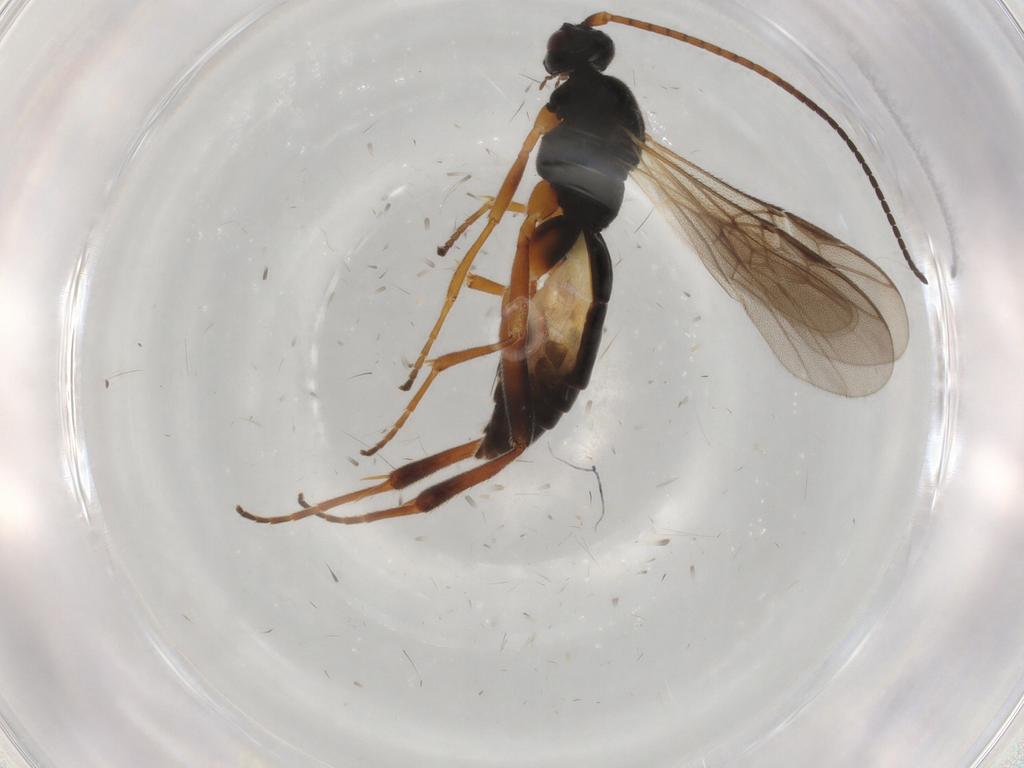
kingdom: Animalia
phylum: Arthropoda
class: Insecta
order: Hymenoptera
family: Braconidae
